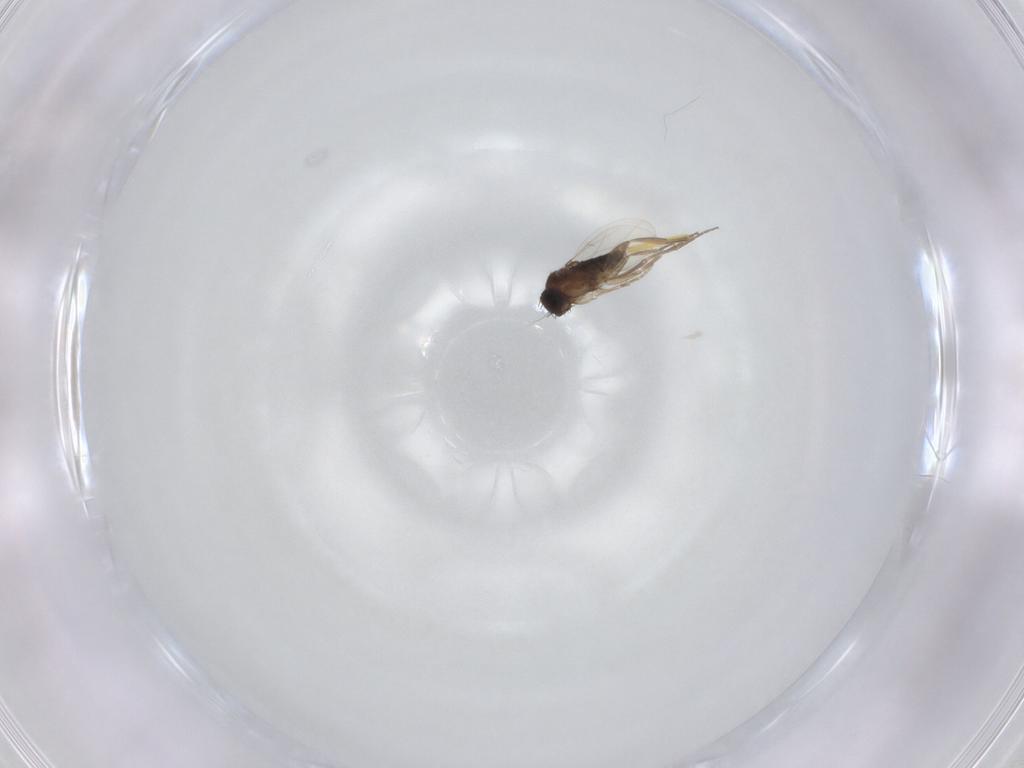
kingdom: Animalia
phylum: Arthropoda
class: Insecta
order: Diptera
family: Phoridae
